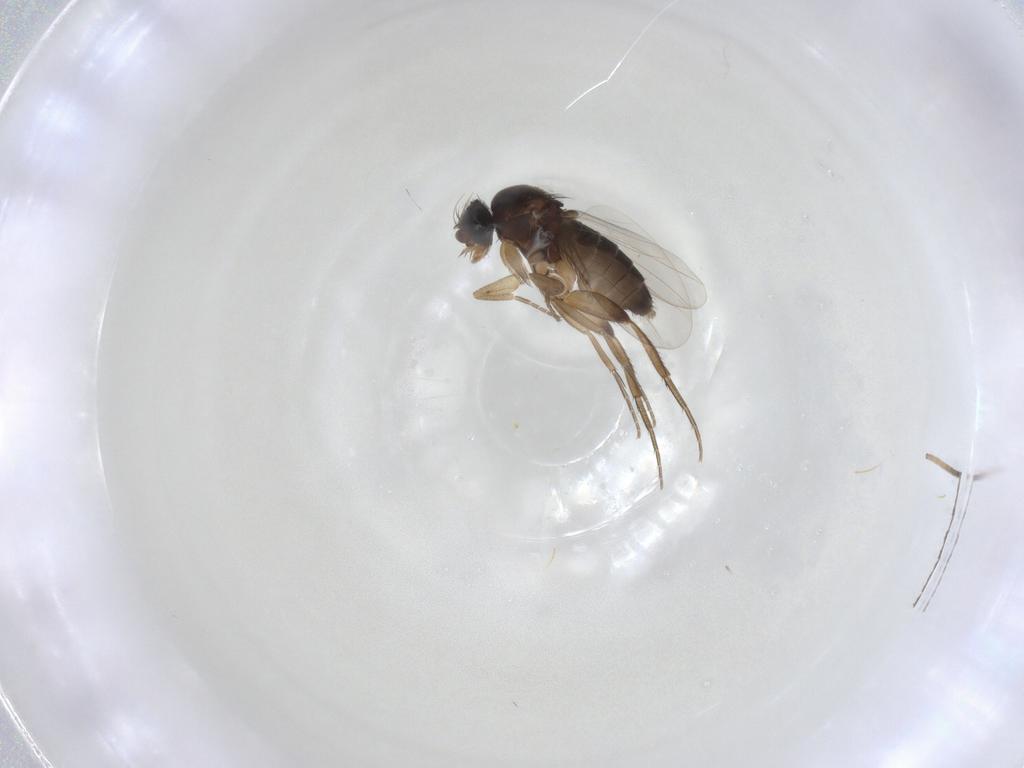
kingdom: Animalia
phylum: Arthropoda
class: Insecta
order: Diptera
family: Phoridae
